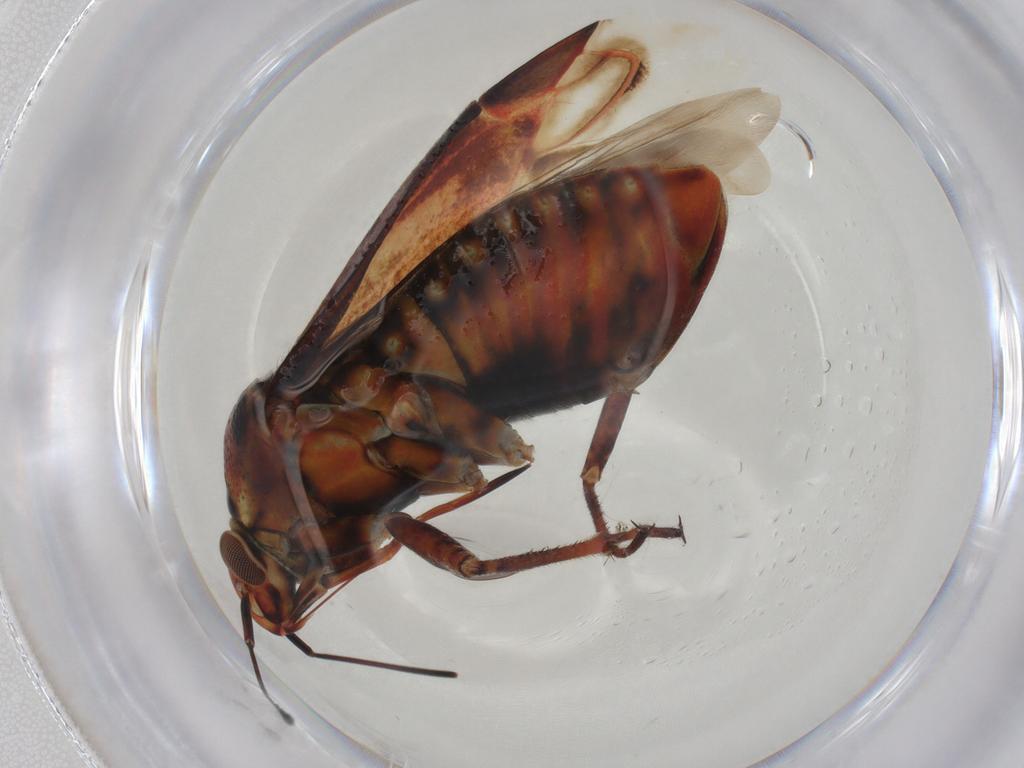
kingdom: Animalia
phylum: Arthropoda
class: Insecta
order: Hemiptera
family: Miridae
